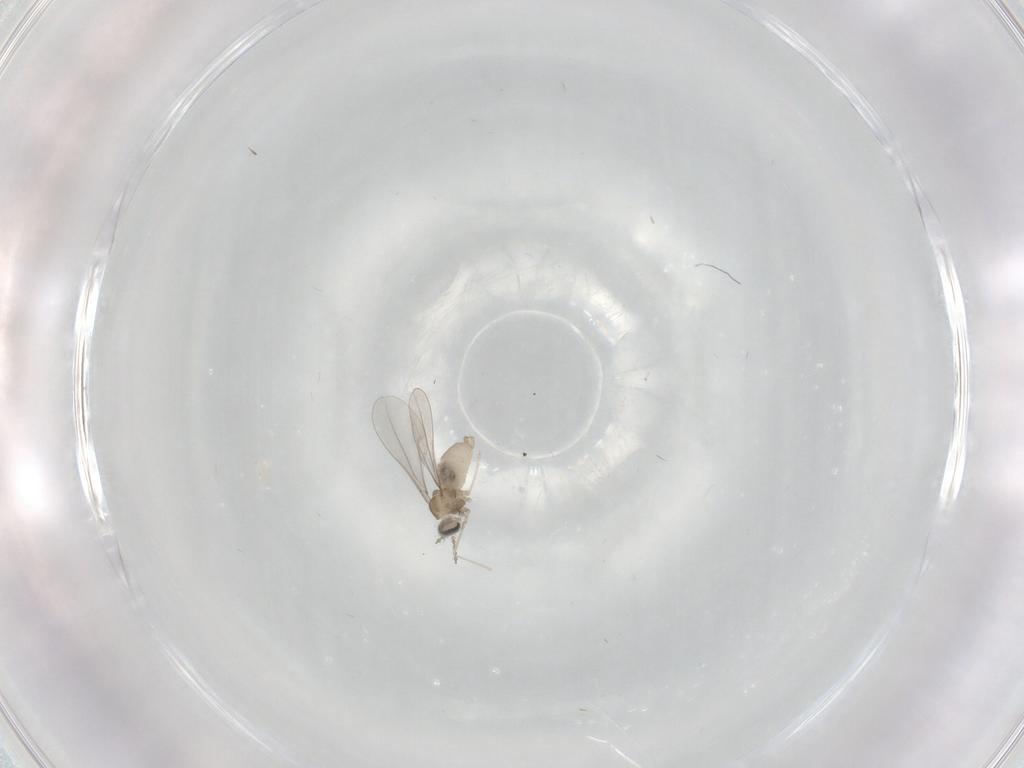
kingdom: Animalia
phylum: Arthropoda
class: Insecta
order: Diptera
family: Cecidomyiidae
